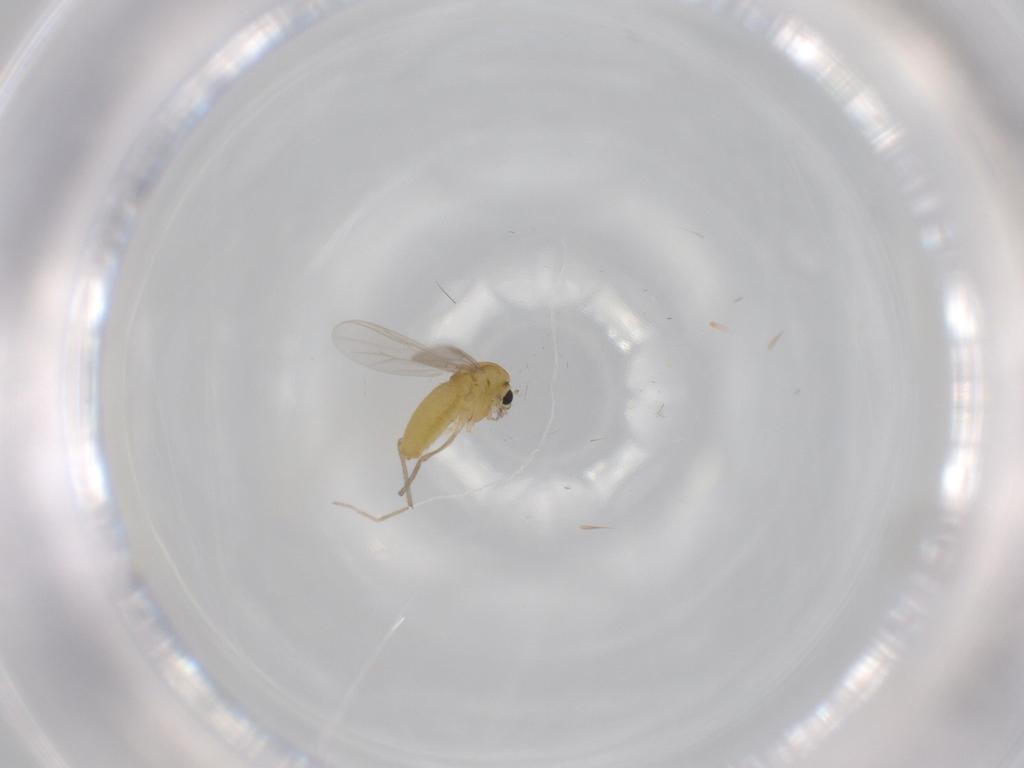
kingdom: Animalia
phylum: Arthropoda
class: Insecta
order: Diptera
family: Chironomidae
